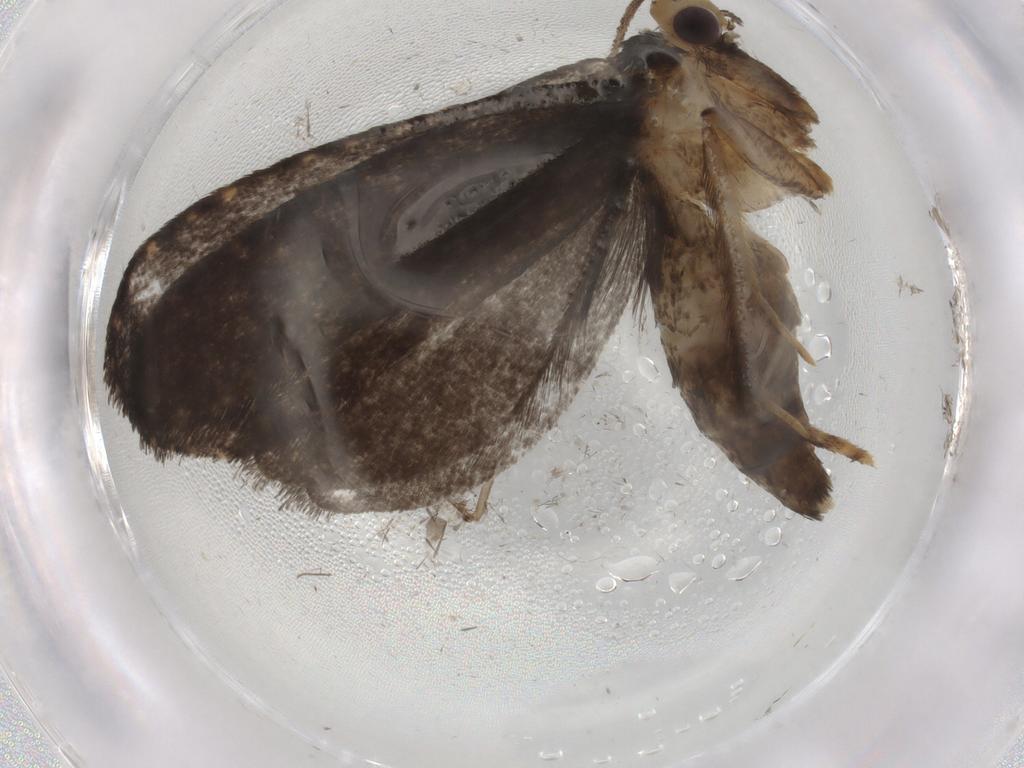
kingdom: Animalia
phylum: Arthropoda
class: Insecta
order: Lepidoptera
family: Tineidae
